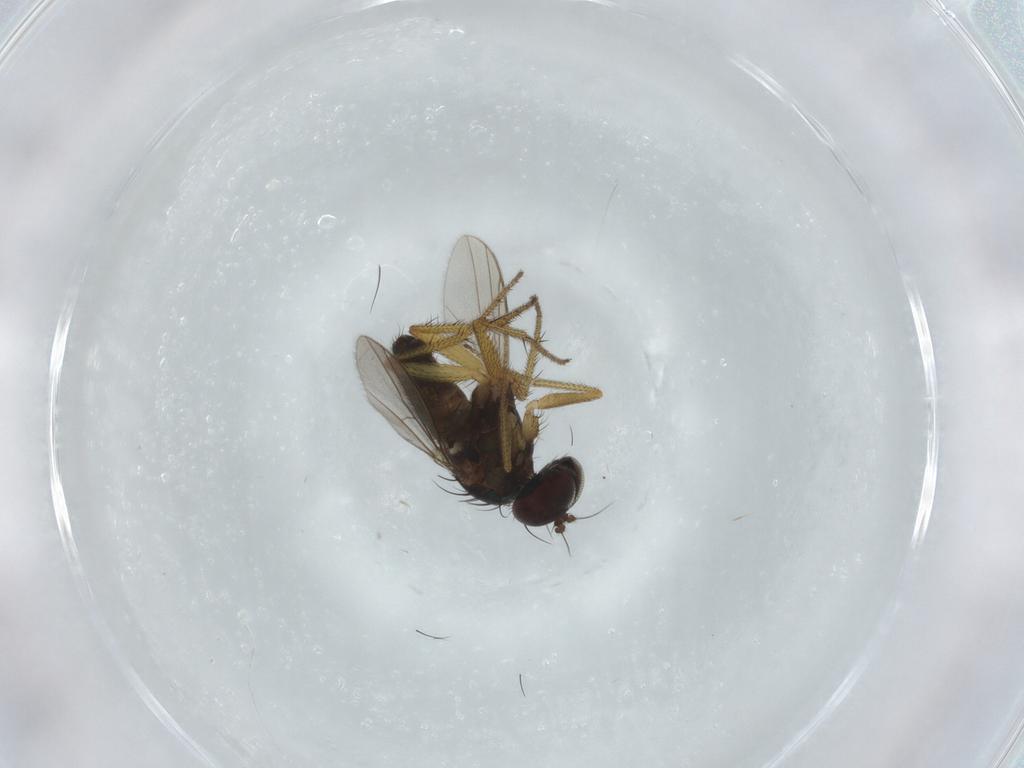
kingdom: Animalia
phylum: Arthropoda
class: Insecta
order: Diptera
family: Dolichopodidae
